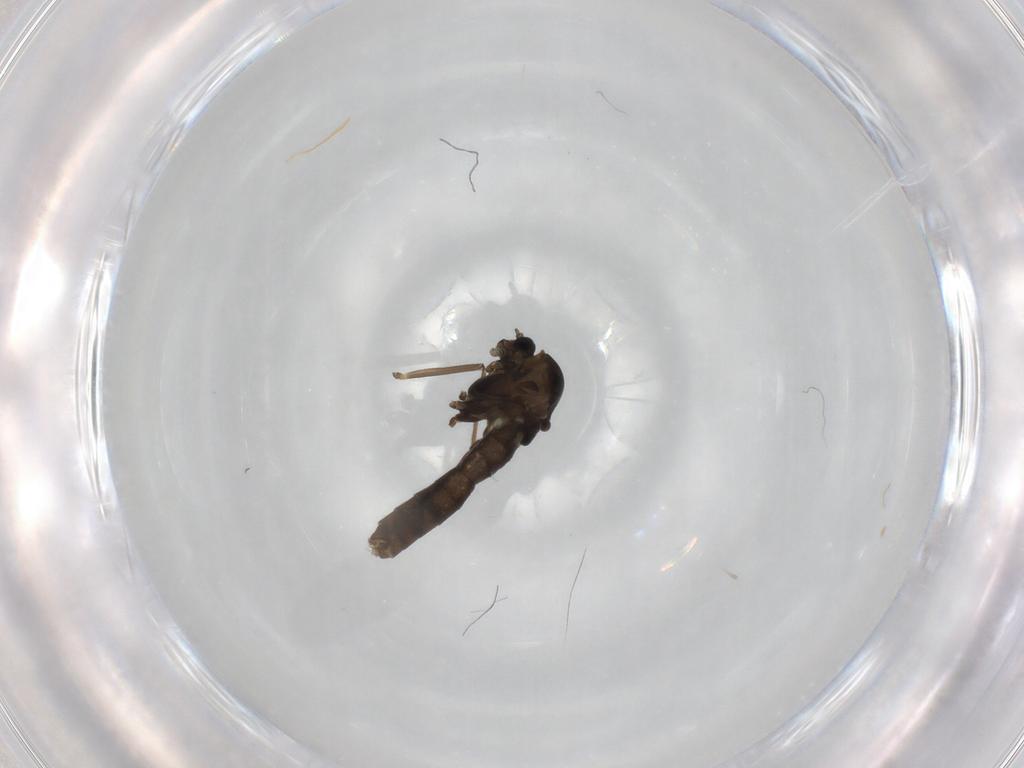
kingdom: Animalia
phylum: Arthropoda
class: Insecta
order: Diptera
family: Chironomidae
